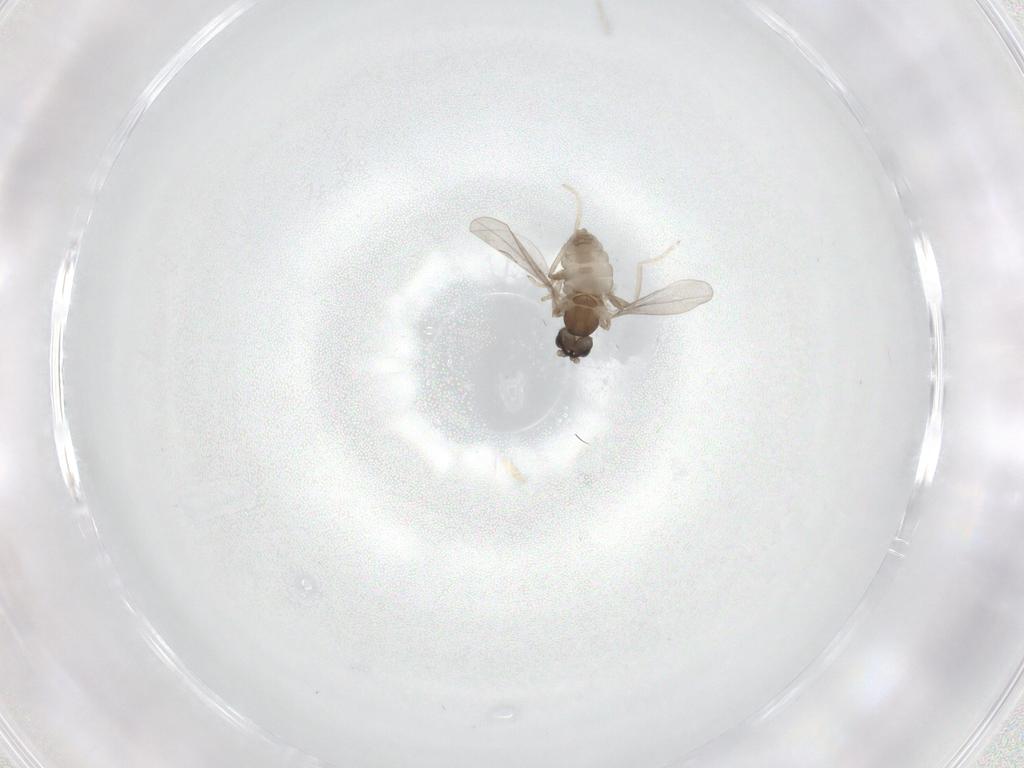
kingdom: Animalia
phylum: Arthropoda
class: Insecta
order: Diptera
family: Cecidomyiidae
